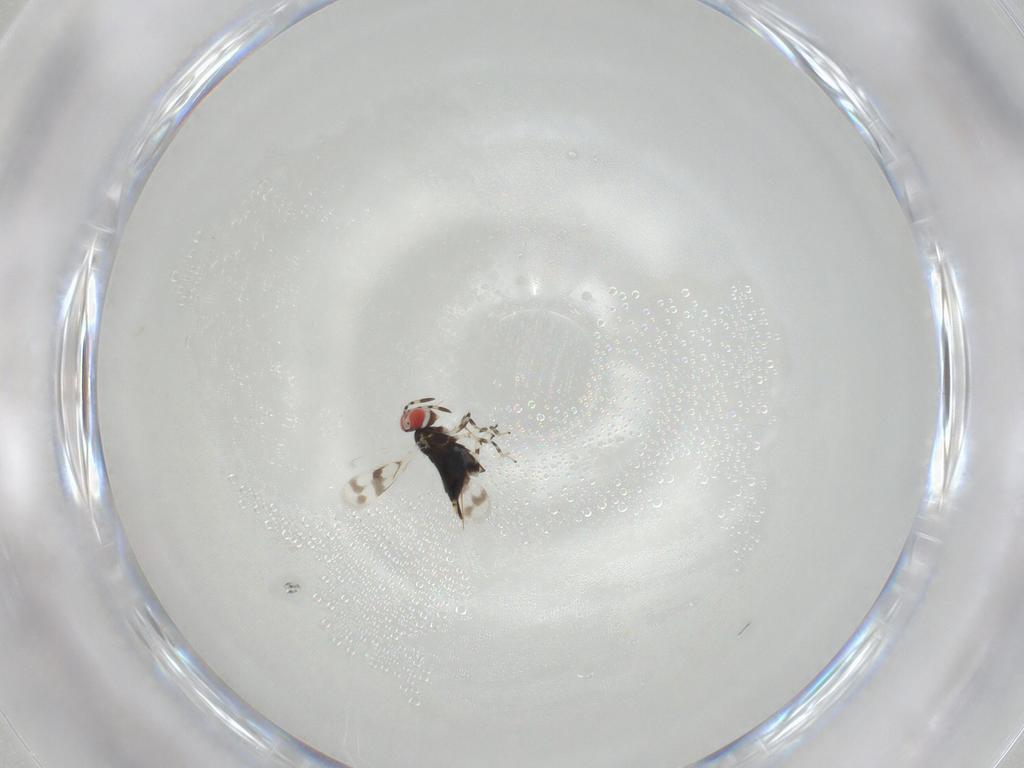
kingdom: Animalia
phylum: Arthropoda
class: Insecta
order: Hymenoptera
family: Azotidae
